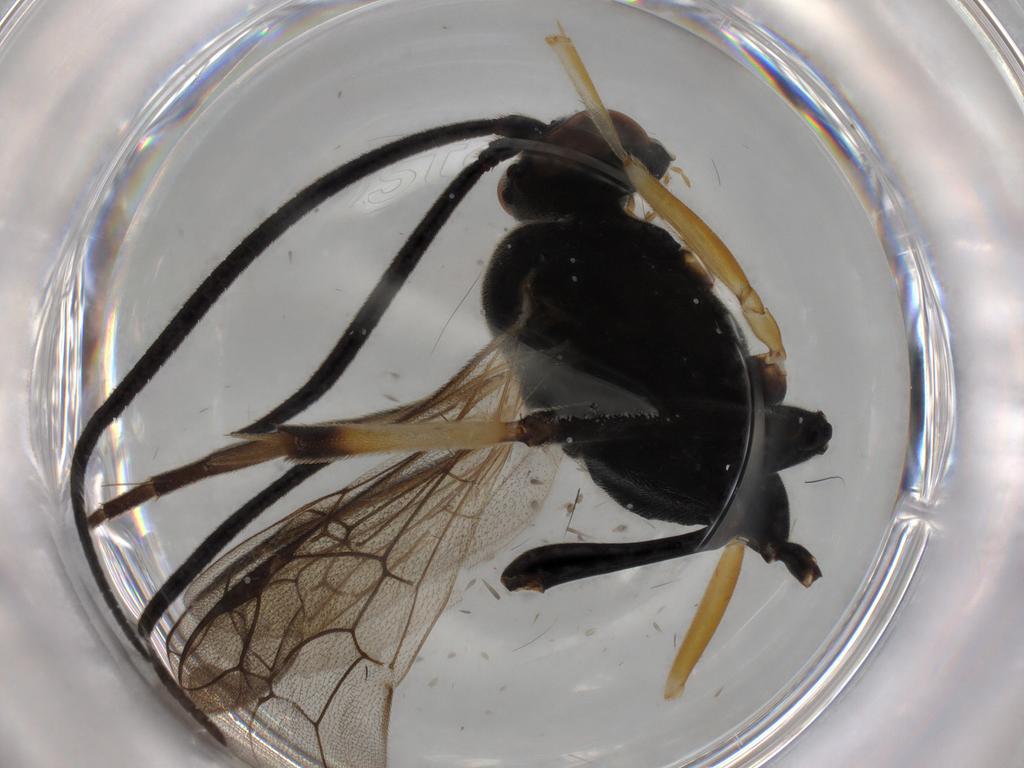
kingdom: Animalia
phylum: Arthropoda
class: Insecta
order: Hymenoptera
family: Ichneumonidae
